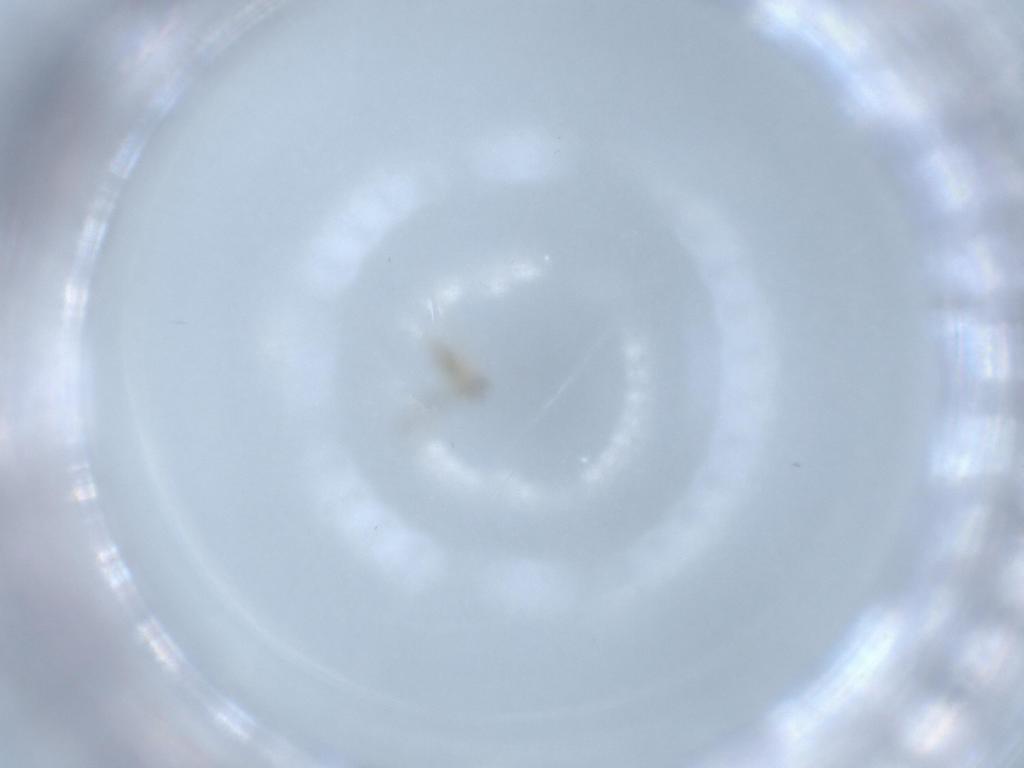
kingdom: Animalia
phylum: Arthropoda
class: Insecta
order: Diptera
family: Cecidomyiidae
